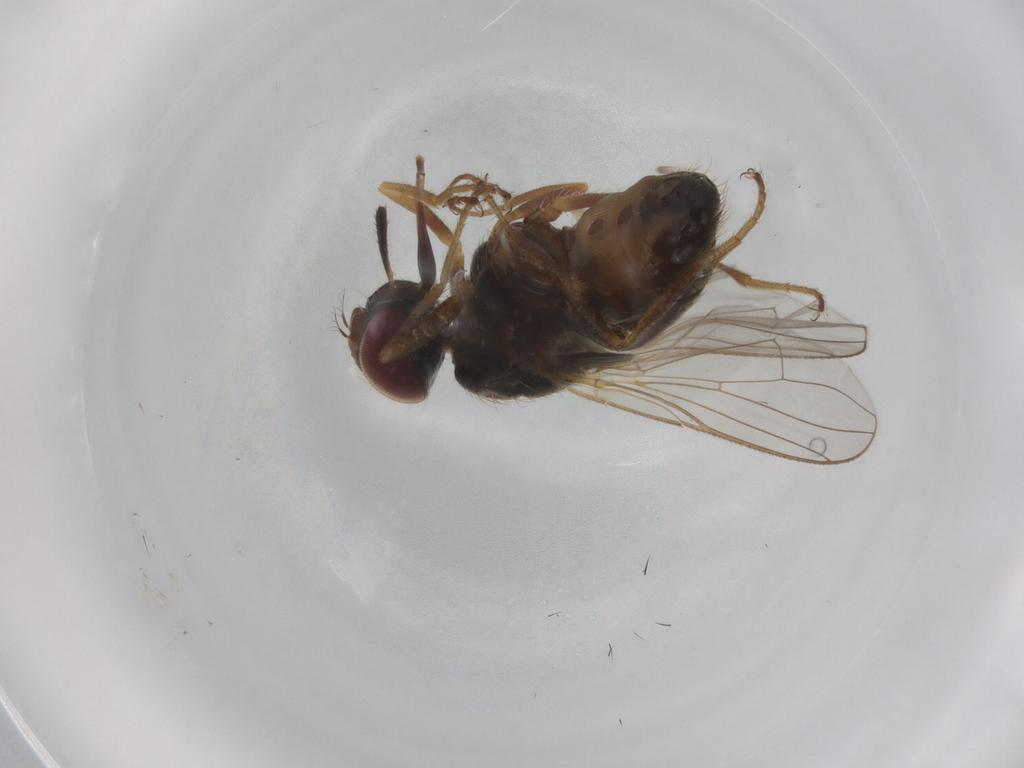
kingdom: Animalia
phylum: Arthropoda
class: Insecta
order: Diptera
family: Muscidae
